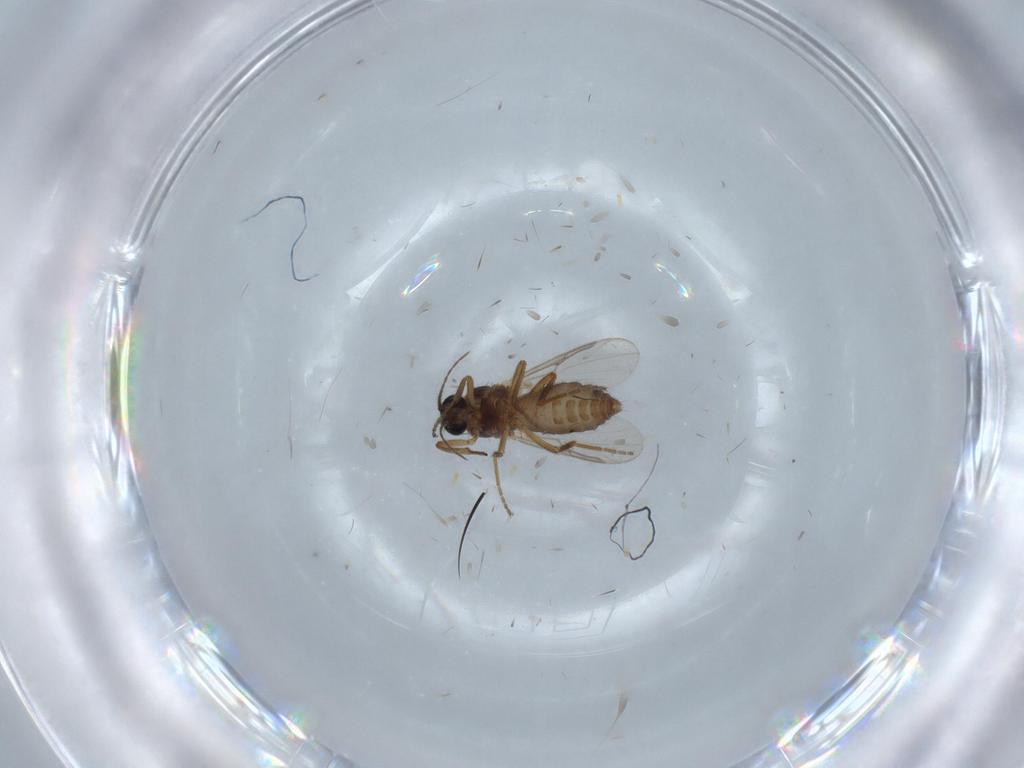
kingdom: Animalia
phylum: Arthropoda
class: Insecta
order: Diptera
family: Ceratopogonidae
